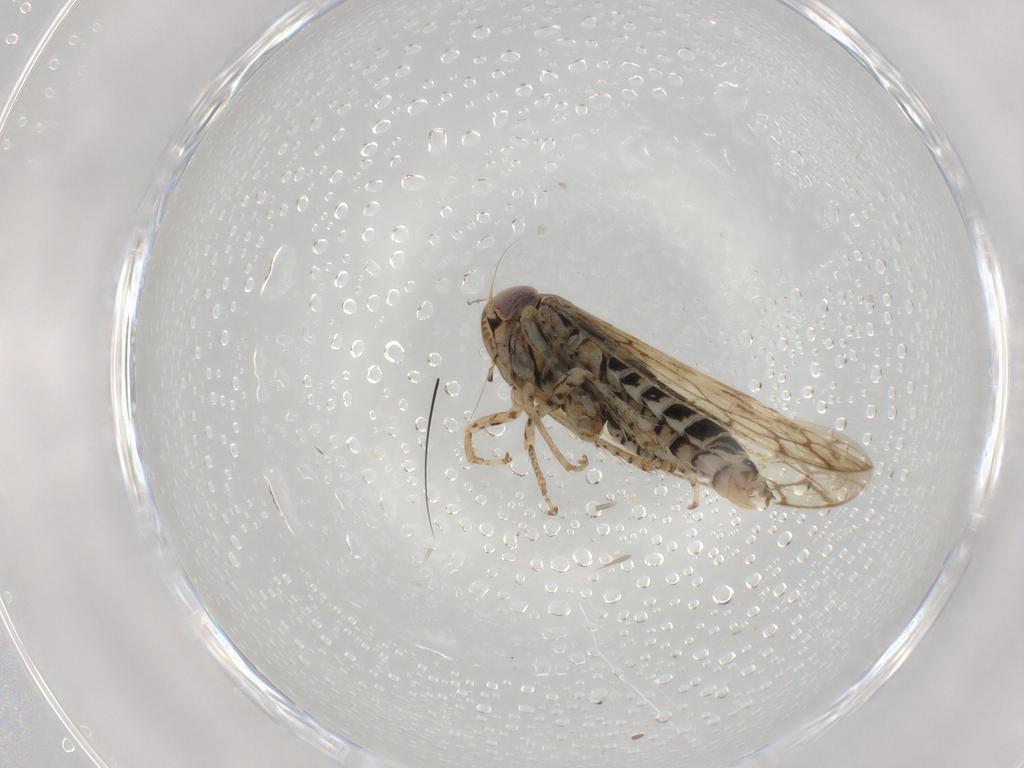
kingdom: Animalia
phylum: Arthropoda
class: Insecta
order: Hemiptera
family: Cicadellidae
